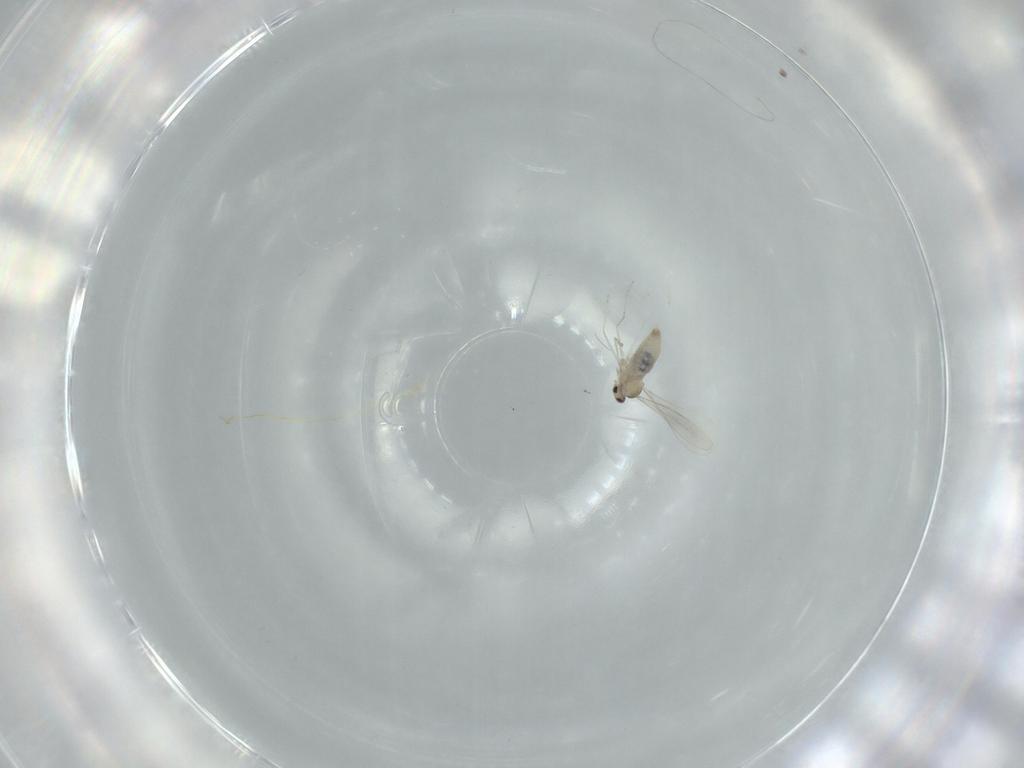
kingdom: Animalia
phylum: Arthropoda
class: Insecta
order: Diptera
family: Cecidomyiidae
